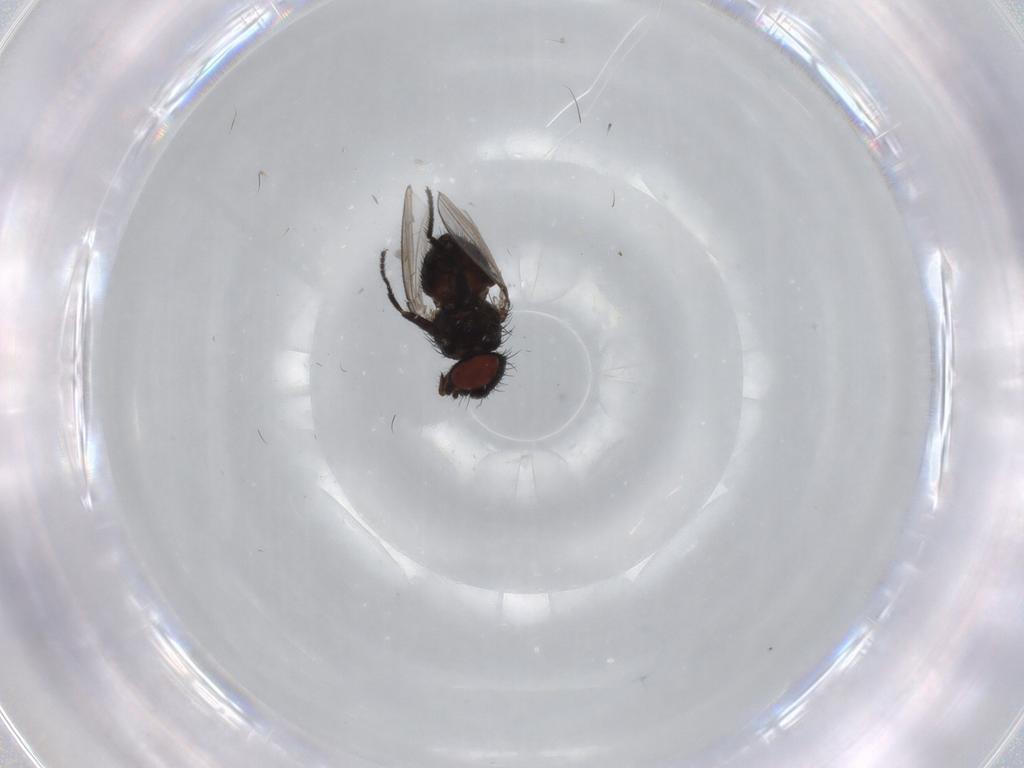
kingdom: Animalia
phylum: Arthropoda
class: Insecta
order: Diptera
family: Milichiidae
